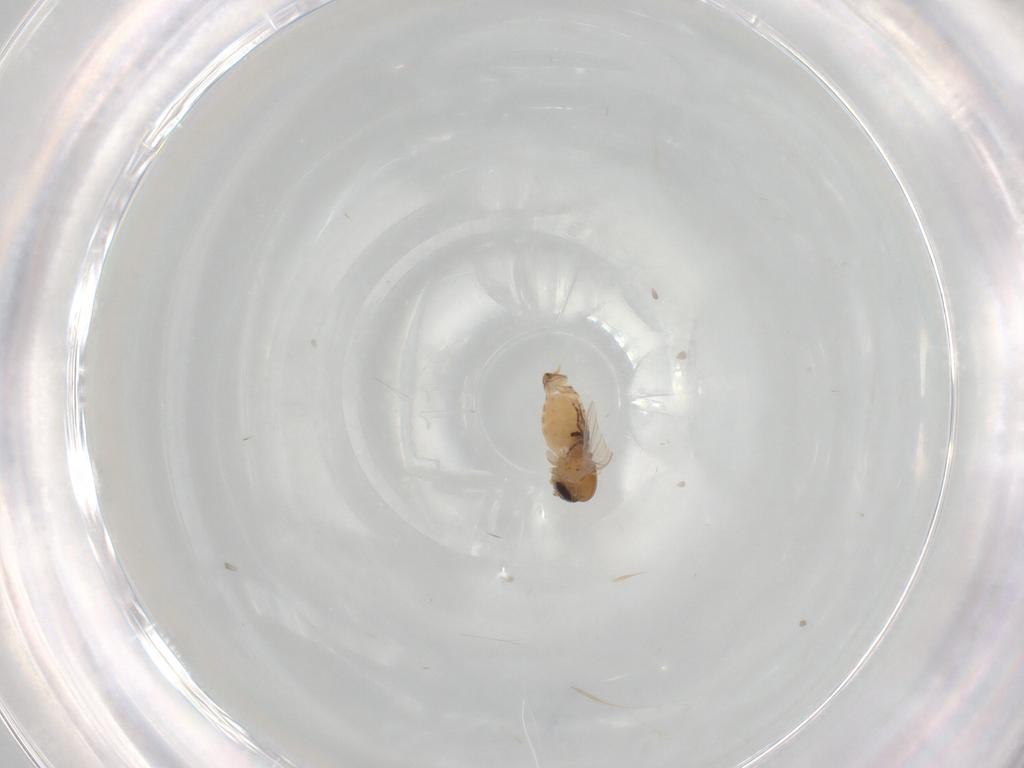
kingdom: Animalia
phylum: Arthropoda
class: Insecta
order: Diptera
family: Psychodidae
